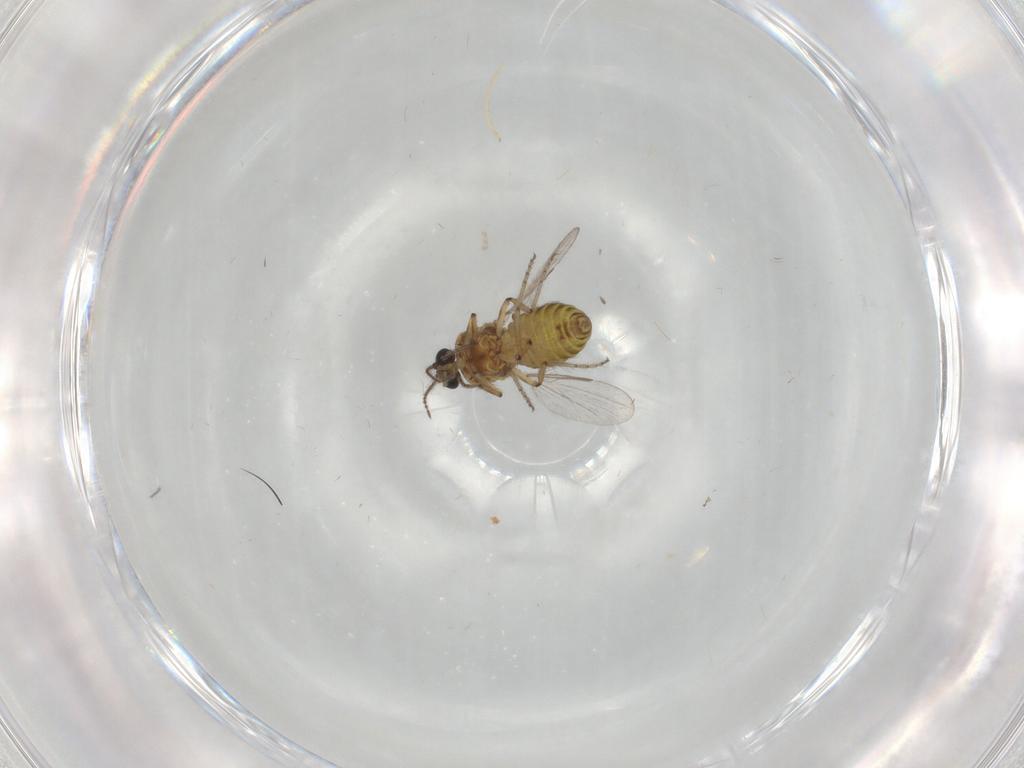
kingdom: Animalia
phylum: Arthropoda
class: Insecta
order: Diptera
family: Ceratopogonidae
